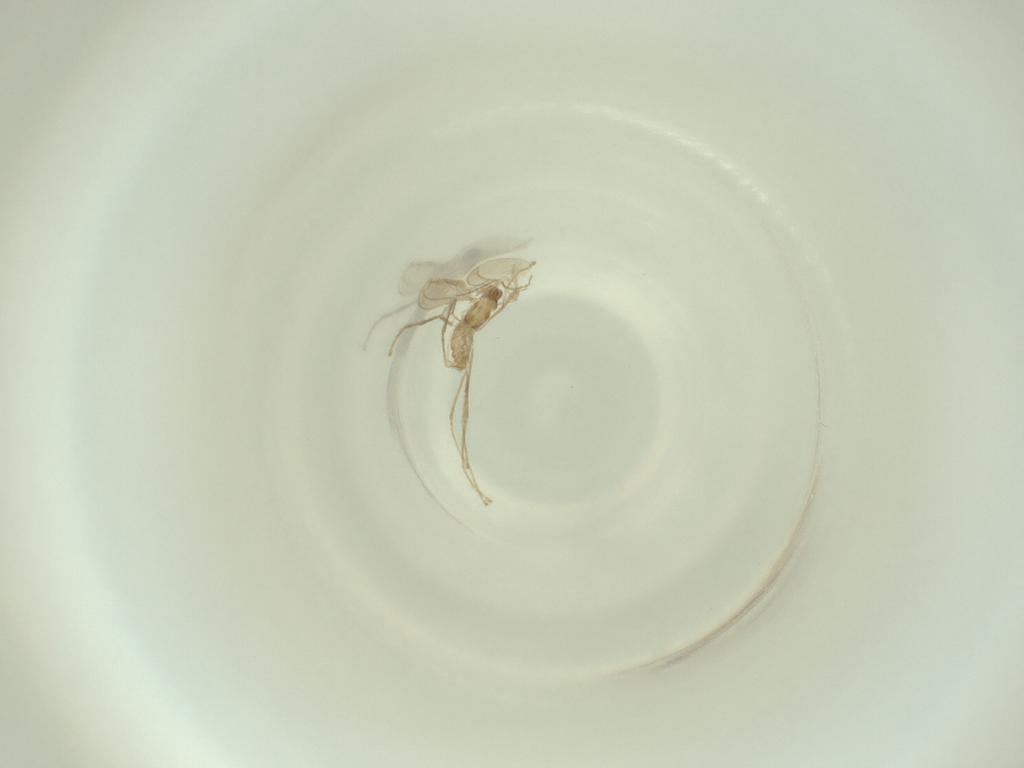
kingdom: Animalia
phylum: Arthropoda
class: Insecta
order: Diptera
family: Cecidomyiidae
